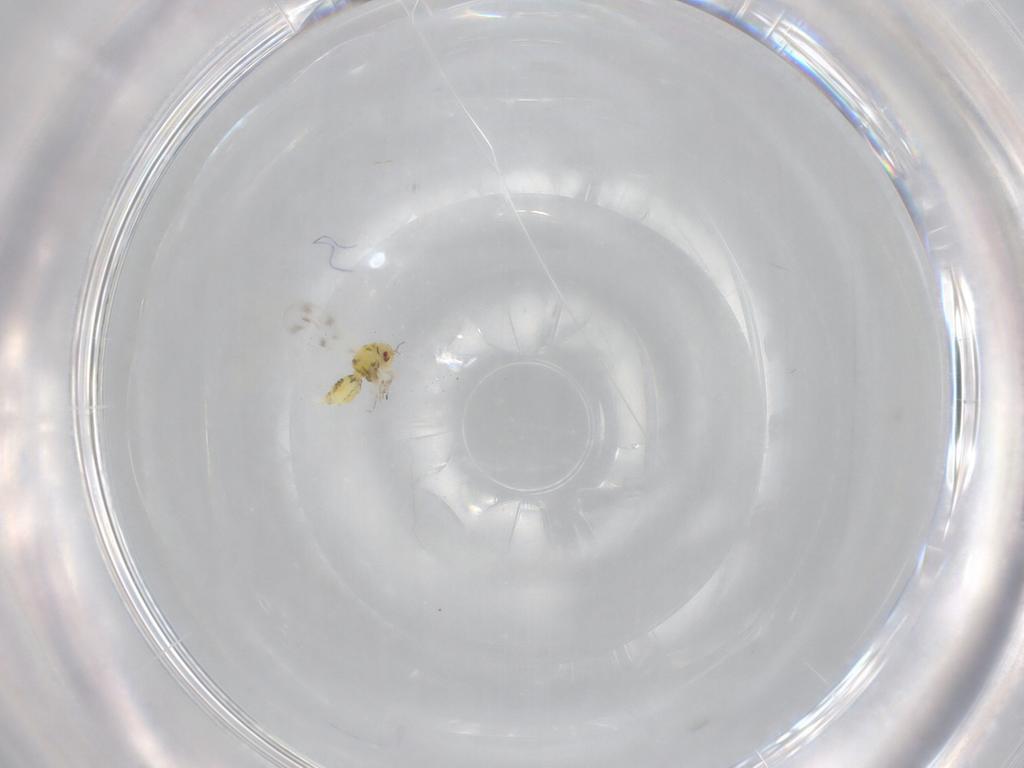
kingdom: Animalia
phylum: Arthropoda
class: Insecta
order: Hemiptera
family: Aleyrodidae
